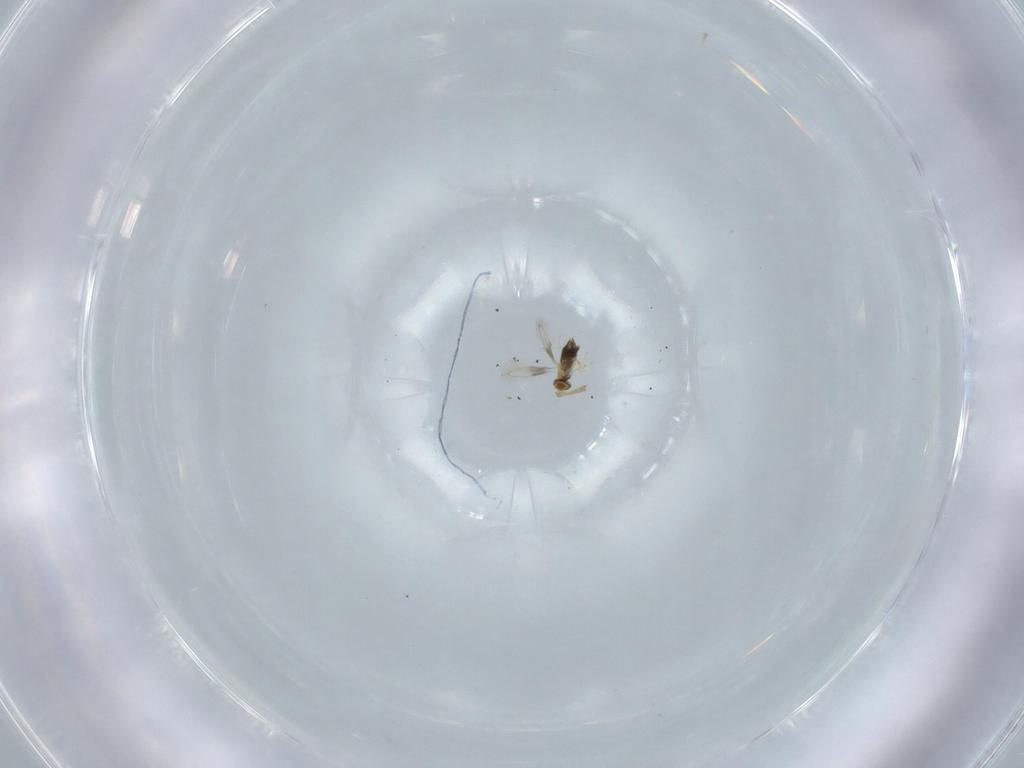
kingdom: Animalia
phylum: Arthropoda
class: Insecta
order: Hymenoptera
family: Aphelinidae
